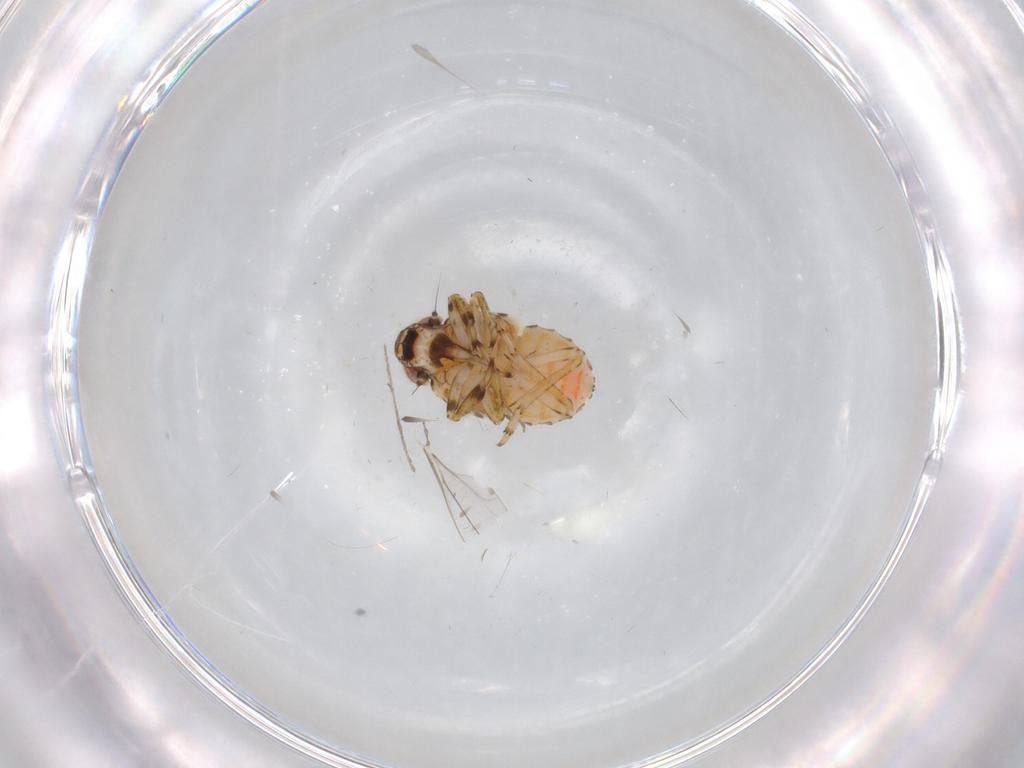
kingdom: Animalia
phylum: Arthropoda
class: Insecta
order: Hemiptera
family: Issidae
